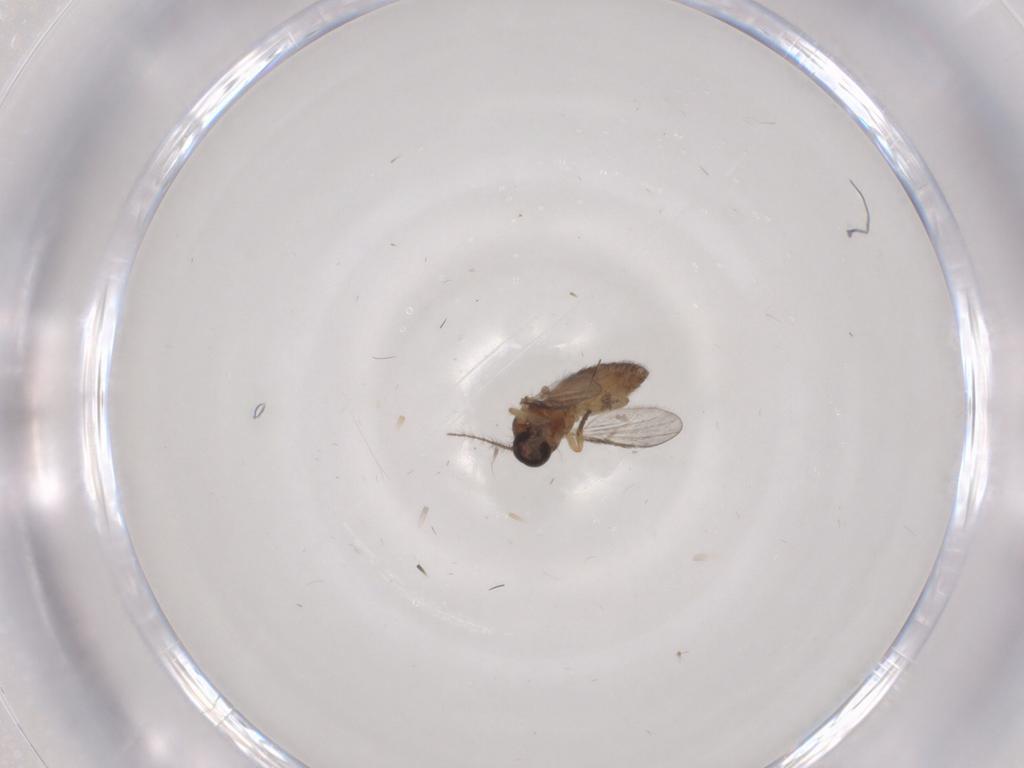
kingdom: Animalia
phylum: Arthropoda
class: Insecta
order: Diptera
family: Ceratopogonidae
